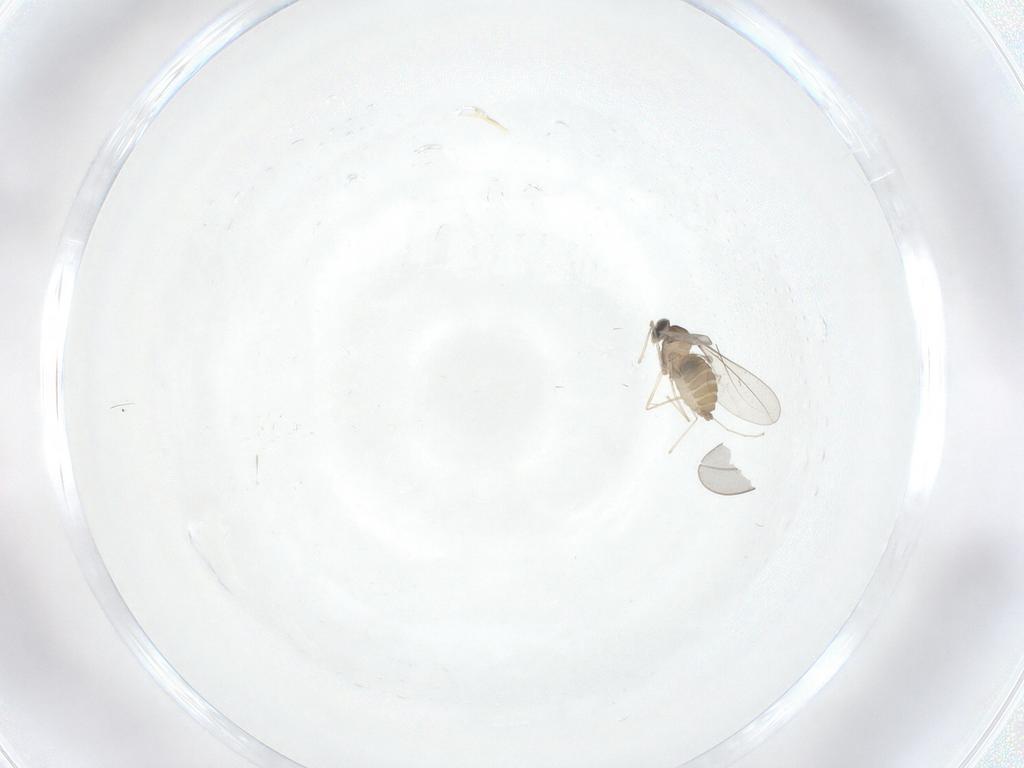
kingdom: Animalia
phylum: Arthropoda
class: Insecta
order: Diptera
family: Cecidomyiidae
